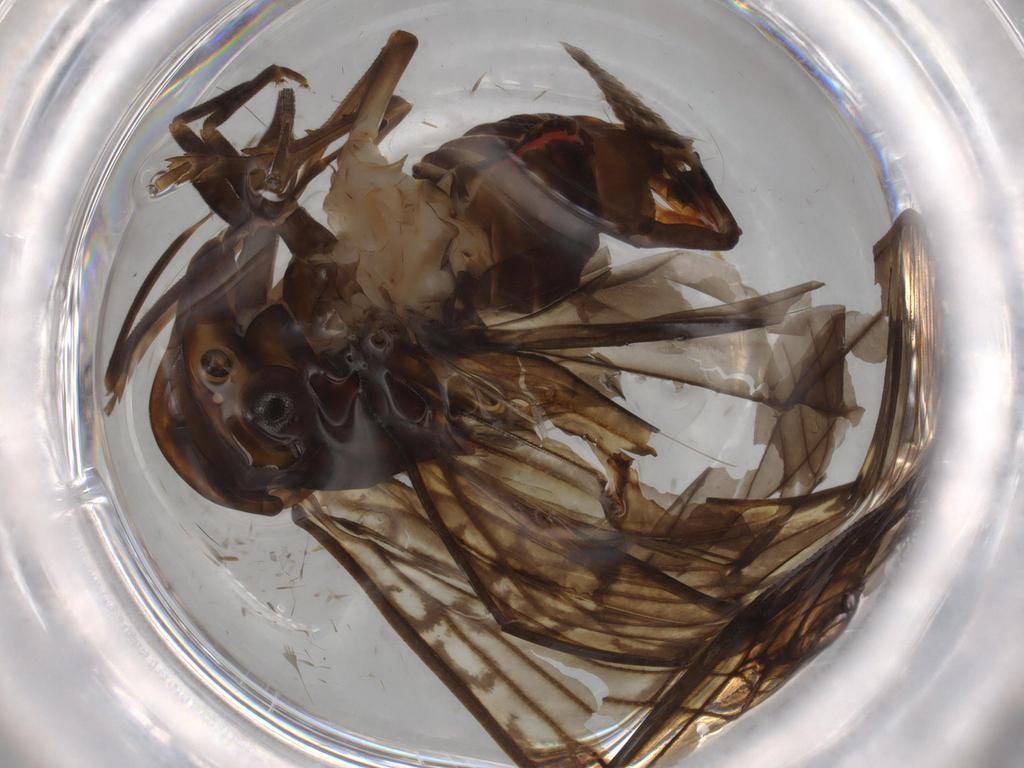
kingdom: Animalia
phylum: Arthropoda
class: Insecta
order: Hemiptera
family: Cixiidae
